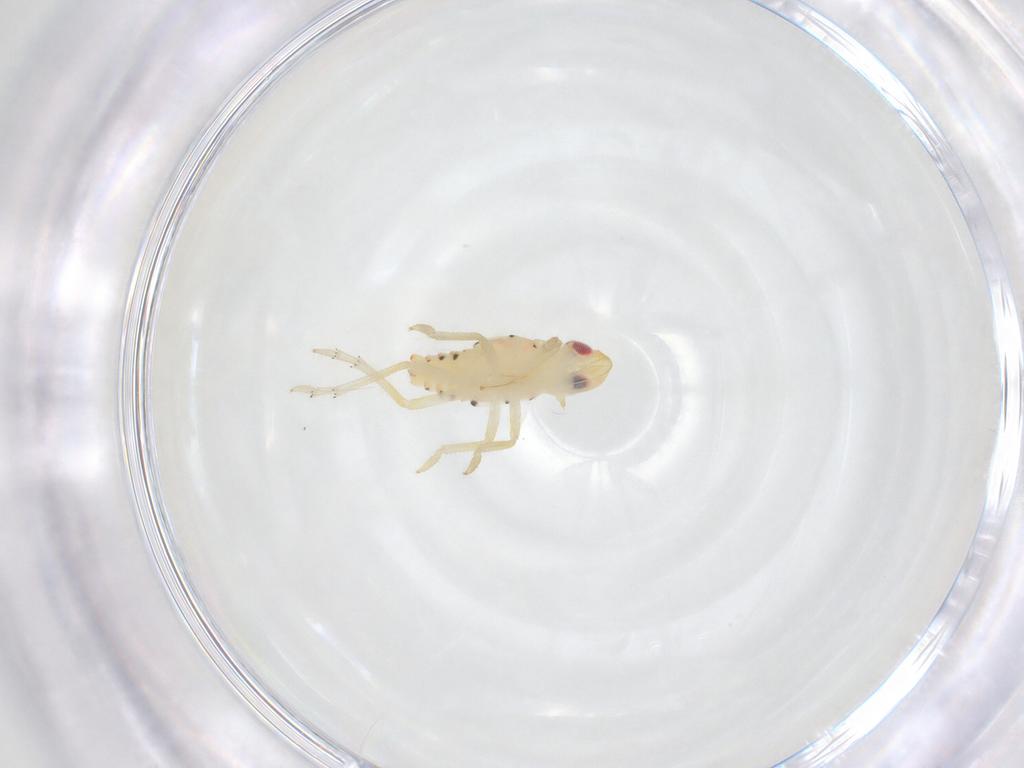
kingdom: Animalia
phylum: Arthropoda
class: Insecta
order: Hemiptera
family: Tropiduchidae
